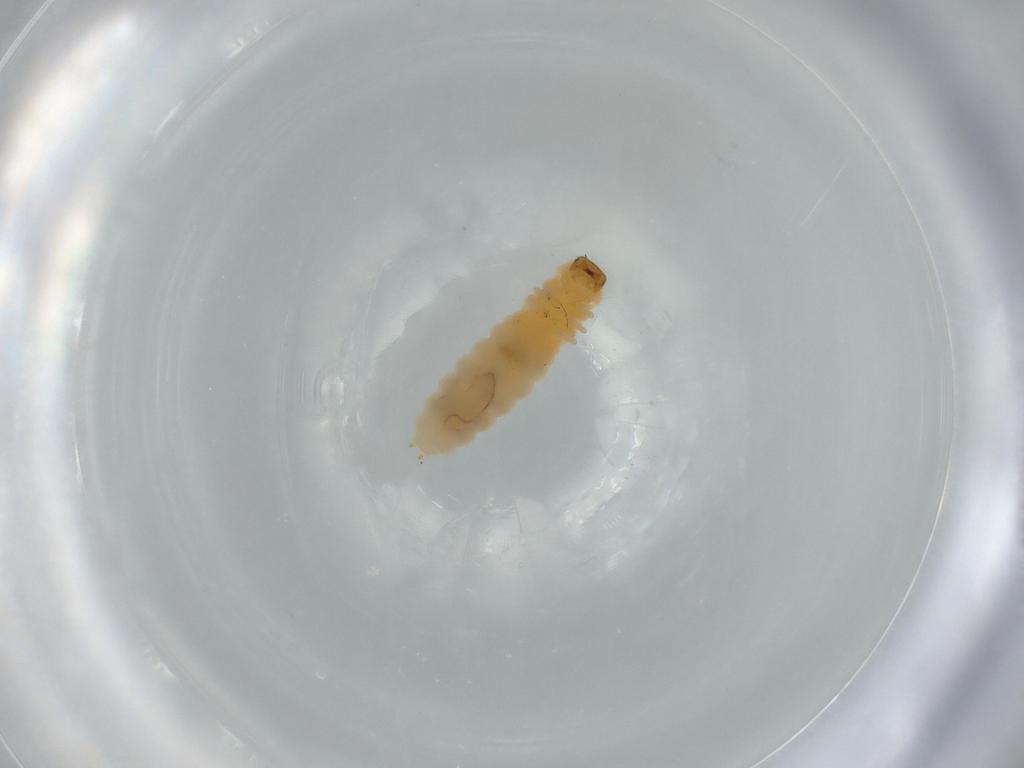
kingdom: Animalia
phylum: Arthropoda
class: Insecta
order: Coleoptera
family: Melyridae
